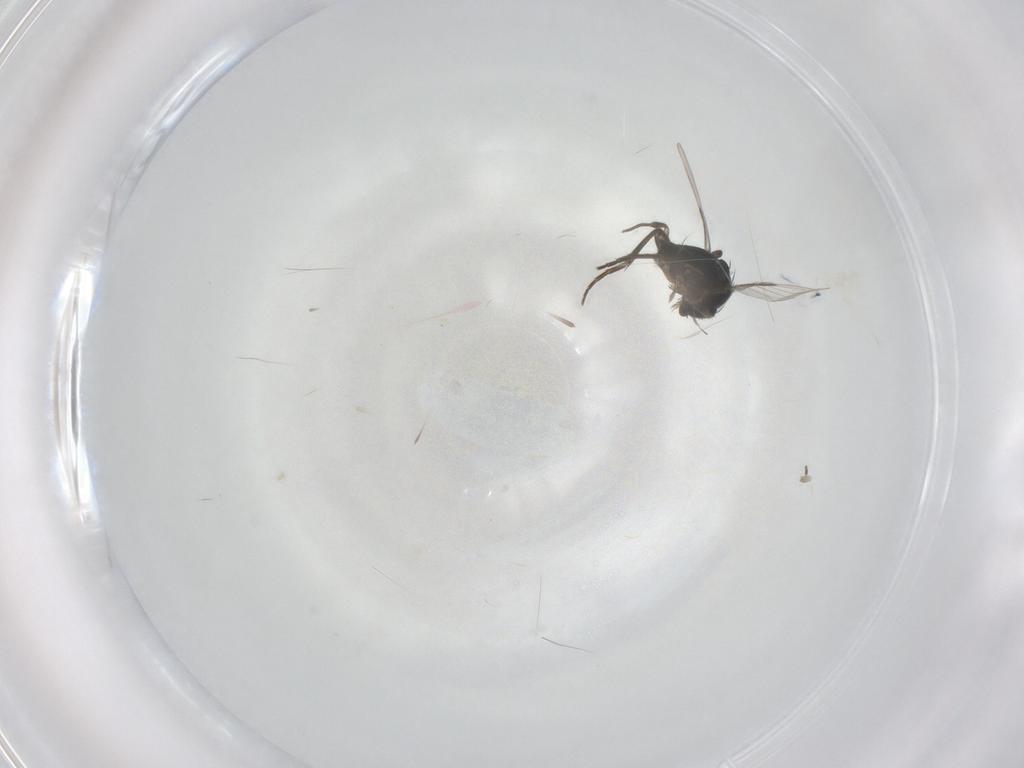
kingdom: Animalia
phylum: Arthropoda
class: Insecta
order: Diptera
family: Phoridae
